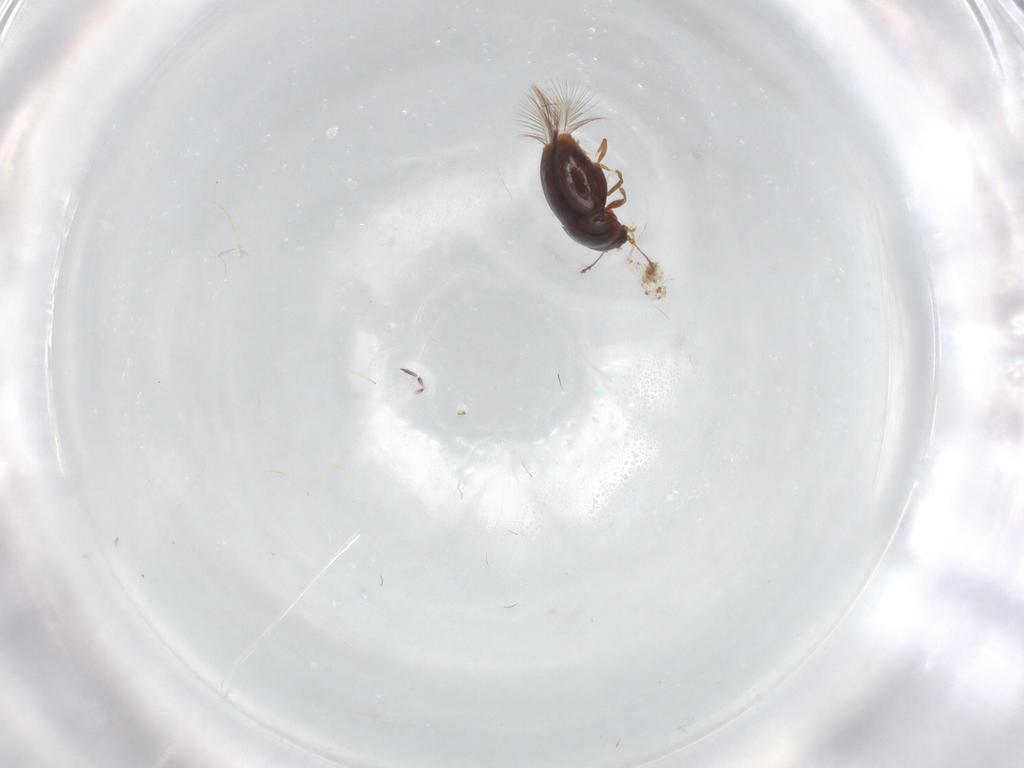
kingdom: Animalia
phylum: Arthropoda
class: Insecta
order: Coleoptera
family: Ptiliidae
